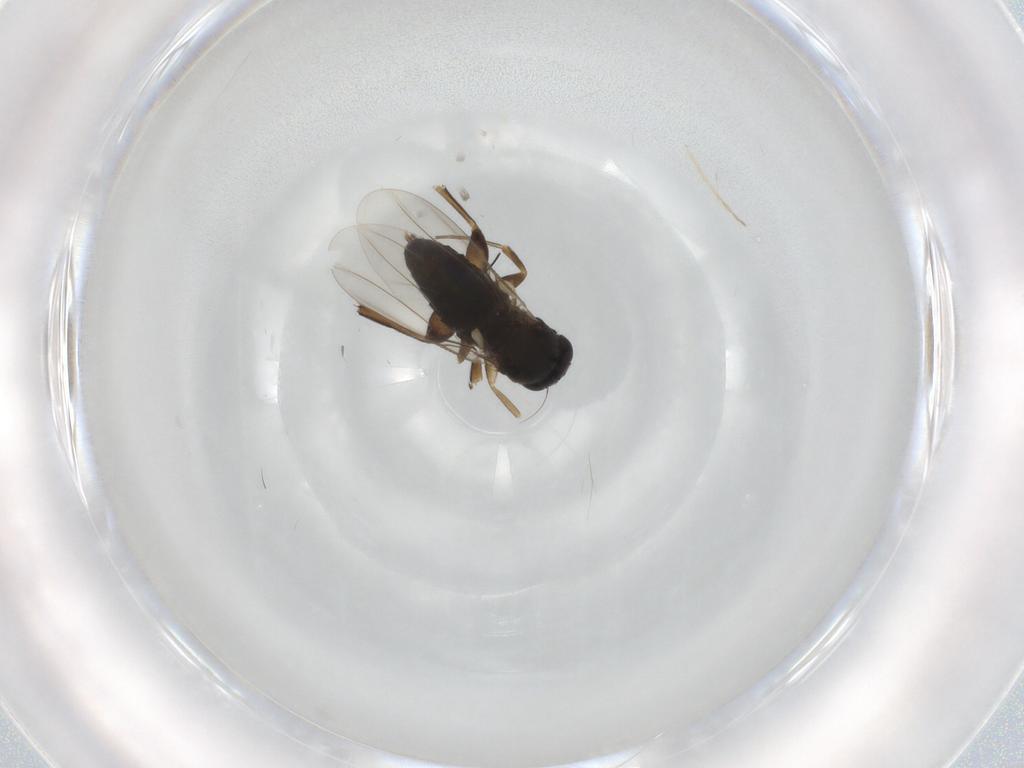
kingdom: Animalia
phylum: Arthropoda
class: Insecta
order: Diptera
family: Phoridae
